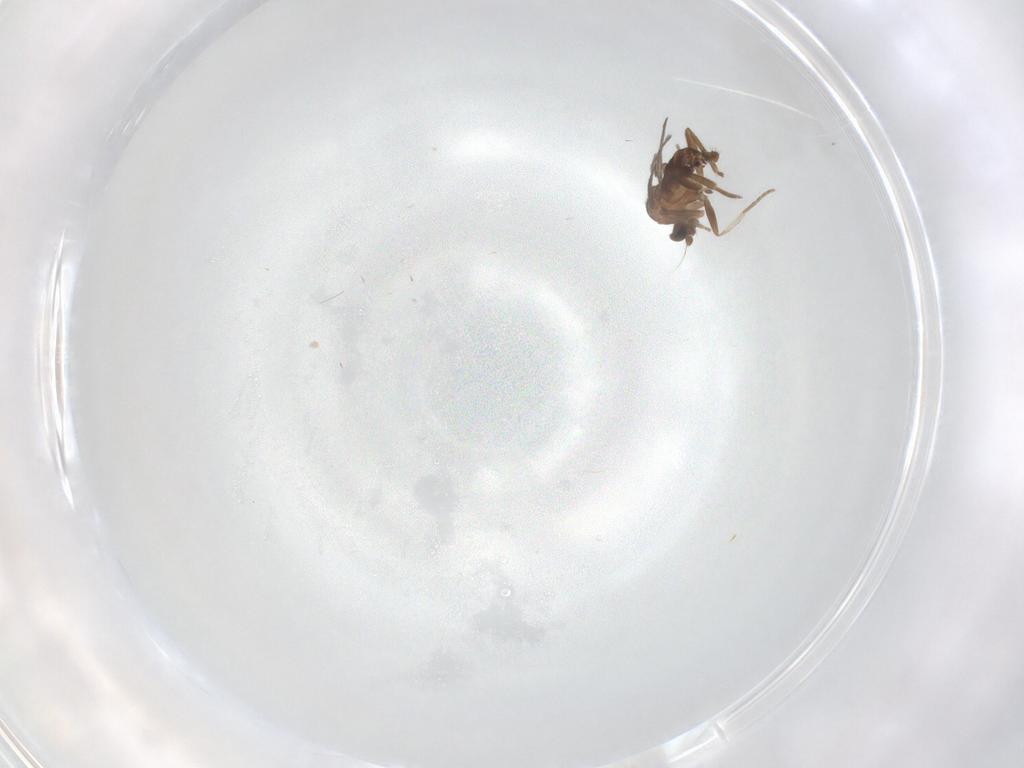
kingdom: Animalia
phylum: Arthropoda
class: Insecta
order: Diptera
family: Phoridae
